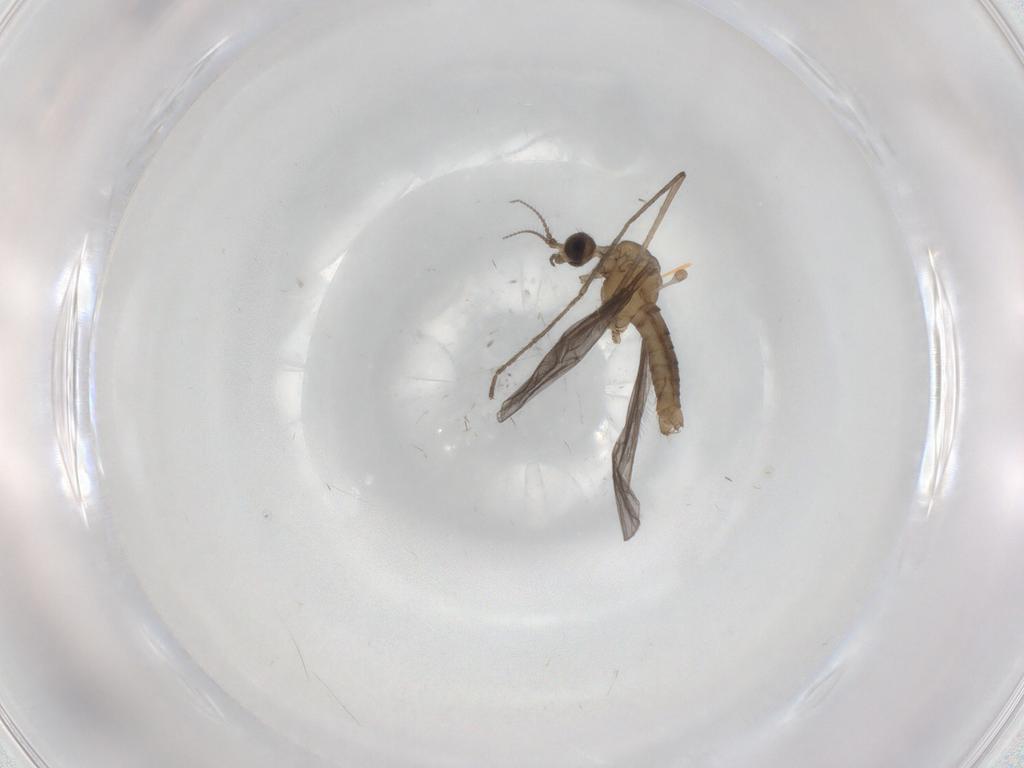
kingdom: Animalia
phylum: Arthropoda
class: Insecta
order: Diptera
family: Limoniidae
